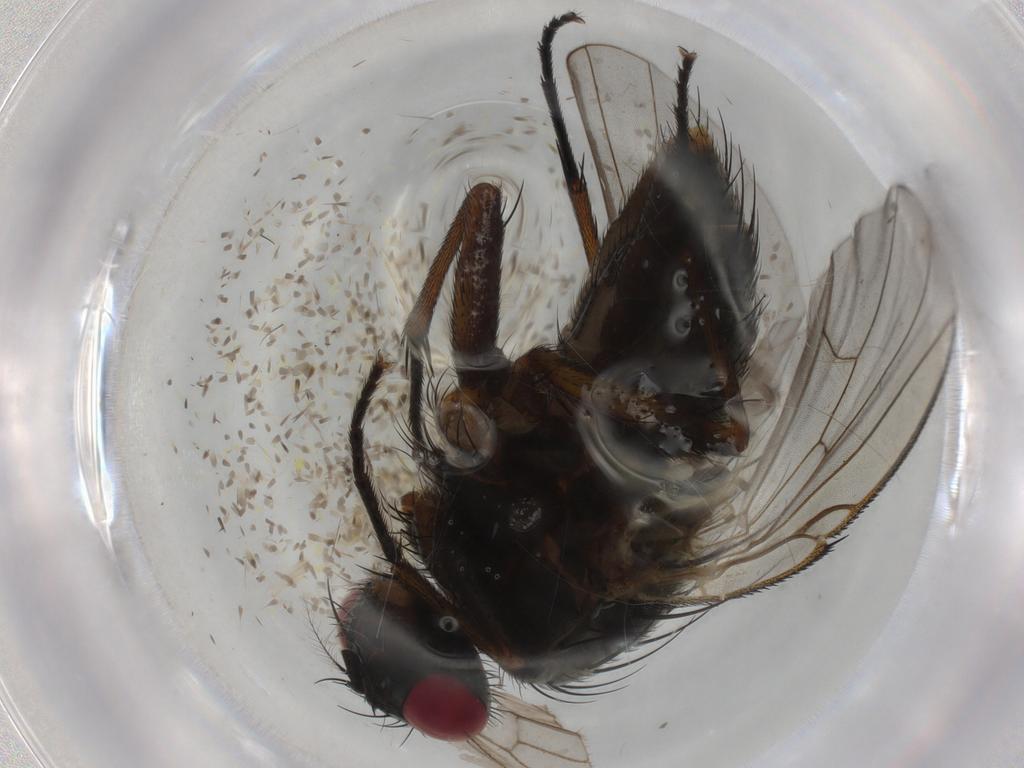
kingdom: Animalia
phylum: Arthropoda
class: Insecta
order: Diptera
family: Muscidae
